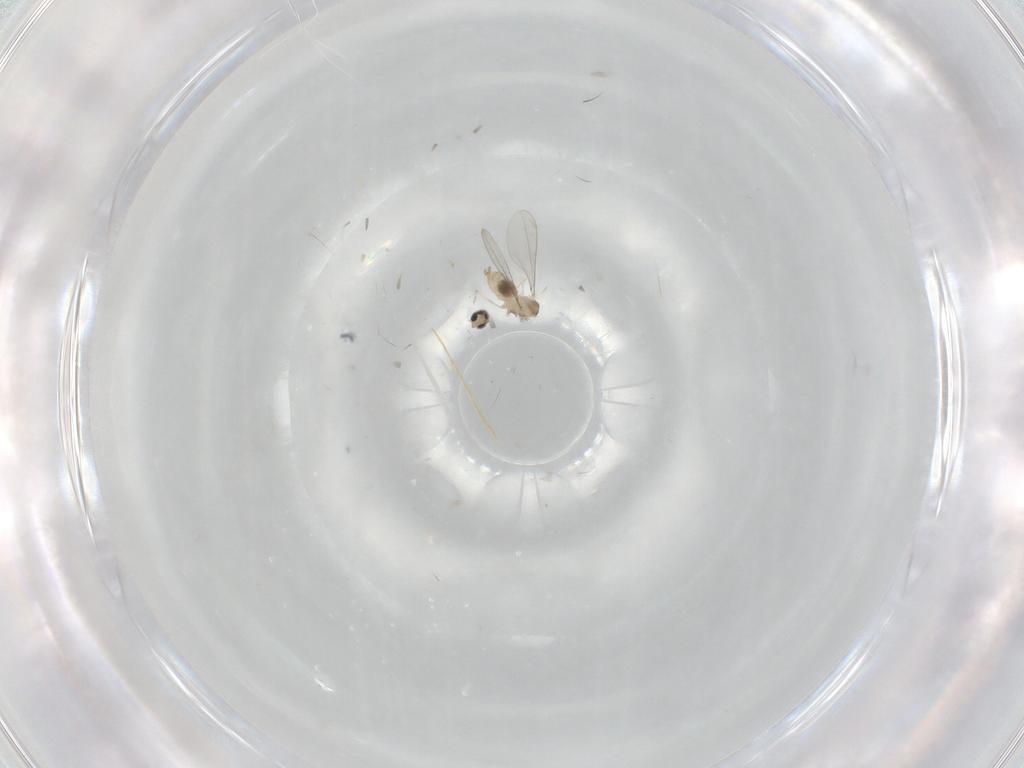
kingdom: Animalia
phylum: Arthropoda
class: Insecta
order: Diptera
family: Cecidomyiidae
